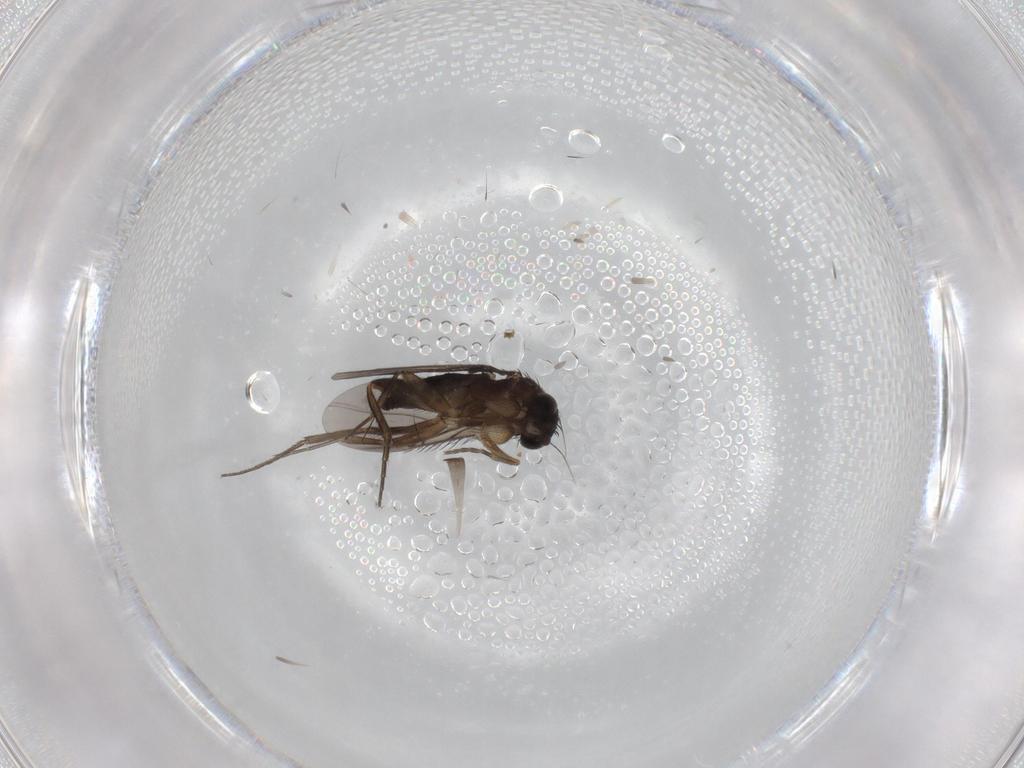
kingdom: Animalia
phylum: Arthropoda
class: Insecta
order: Diptera
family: Phoridae
